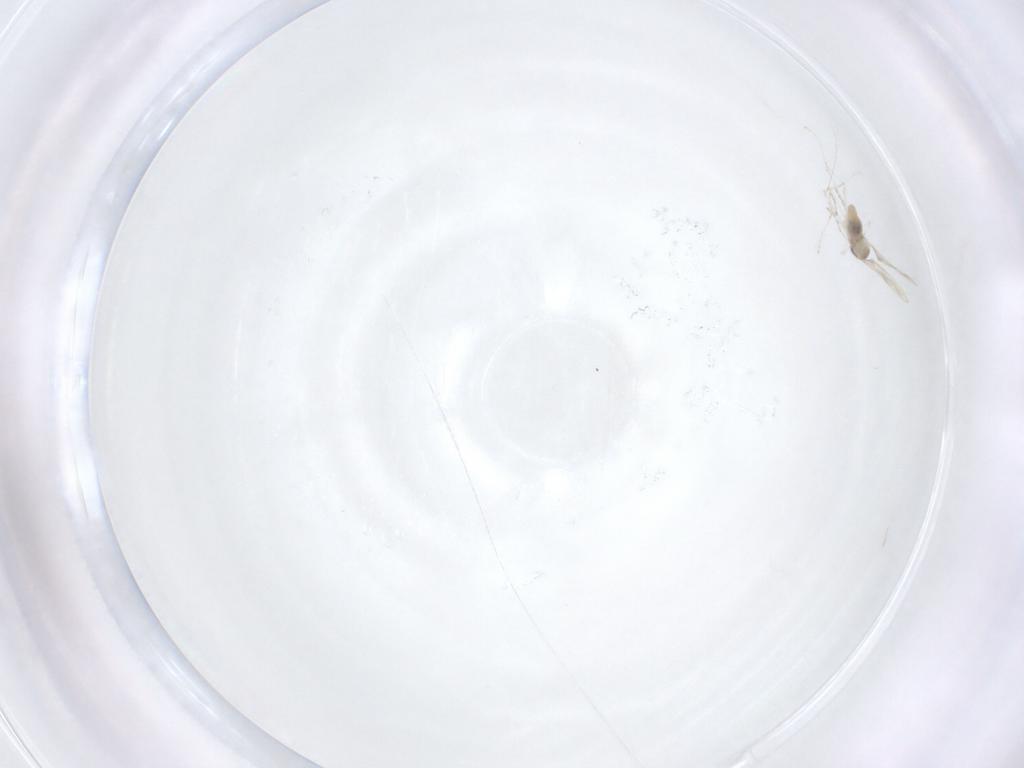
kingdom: Animalia
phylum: Arthropoda
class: Insecta
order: Diptera
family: Cecidomyiidae
